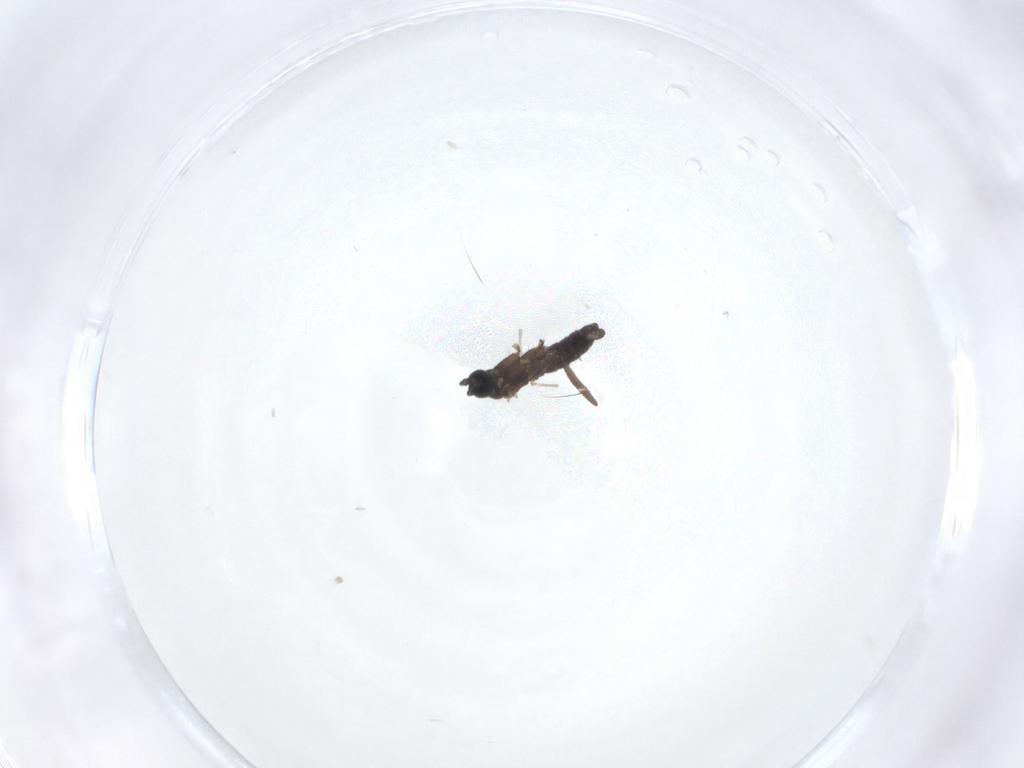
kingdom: Animalia
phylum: Arthropoda
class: Insecta
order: Diptera
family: Sciaridae
